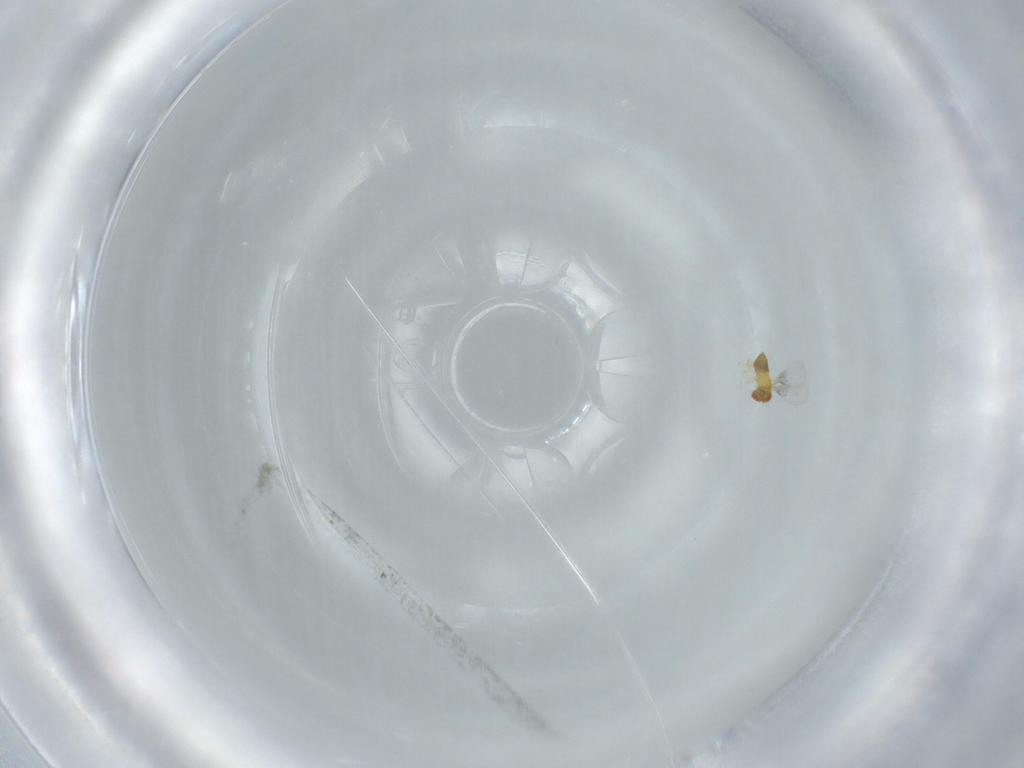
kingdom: Animalia
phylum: Arthropoda
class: Insecta
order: Hymenoptera
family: Trichogrammatidae
